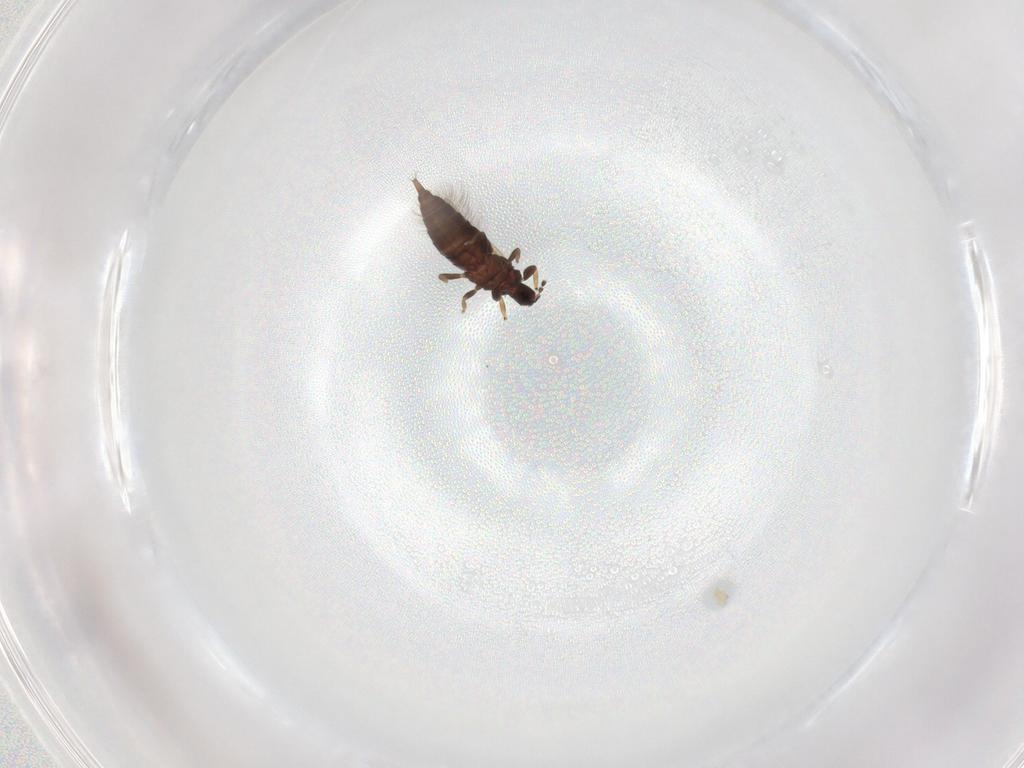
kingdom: Animalia
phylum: Arthropoda
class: Insecta
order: Thysanoptera
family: Phlaeothripidae
